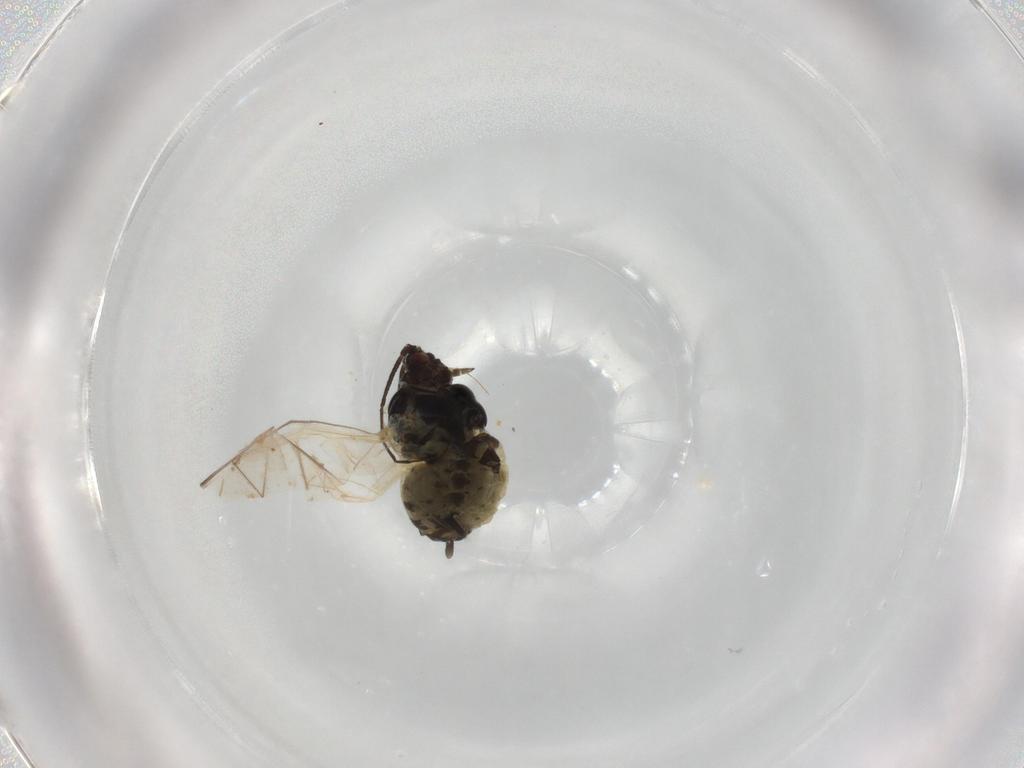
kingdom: Animalia
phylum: Arthropoda
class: Insecta
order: Hemiptera
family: Aphididae
